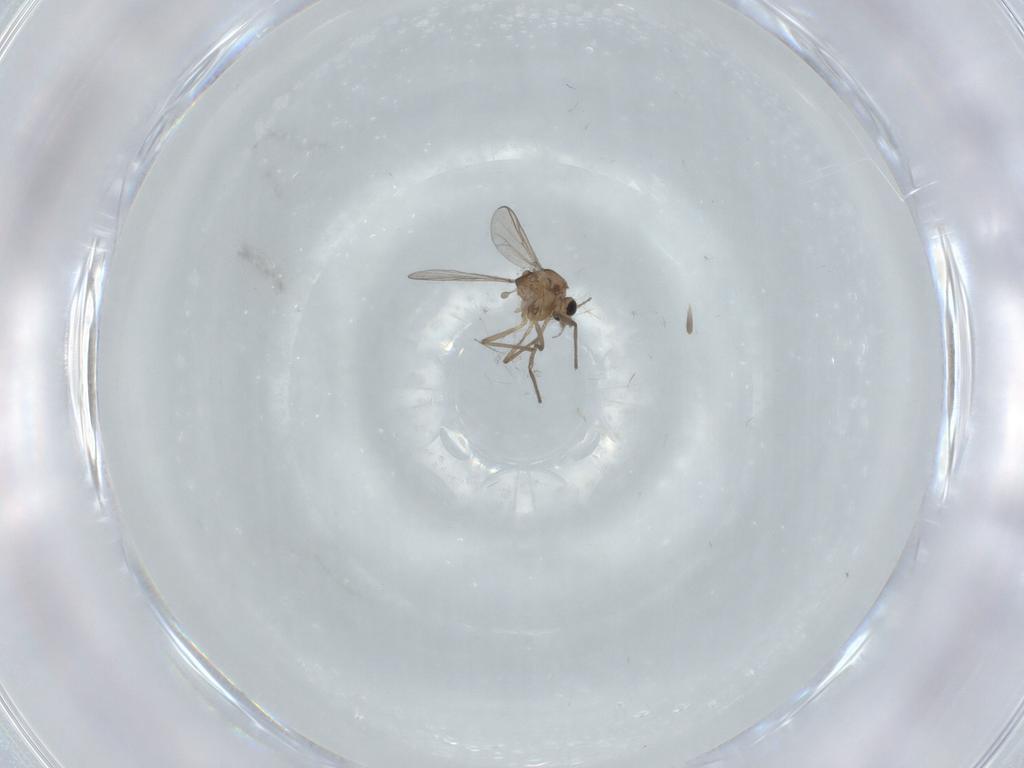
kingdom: Animalia
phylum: Arthropoda
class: Insecta
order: Diptera
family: Chironomidae
